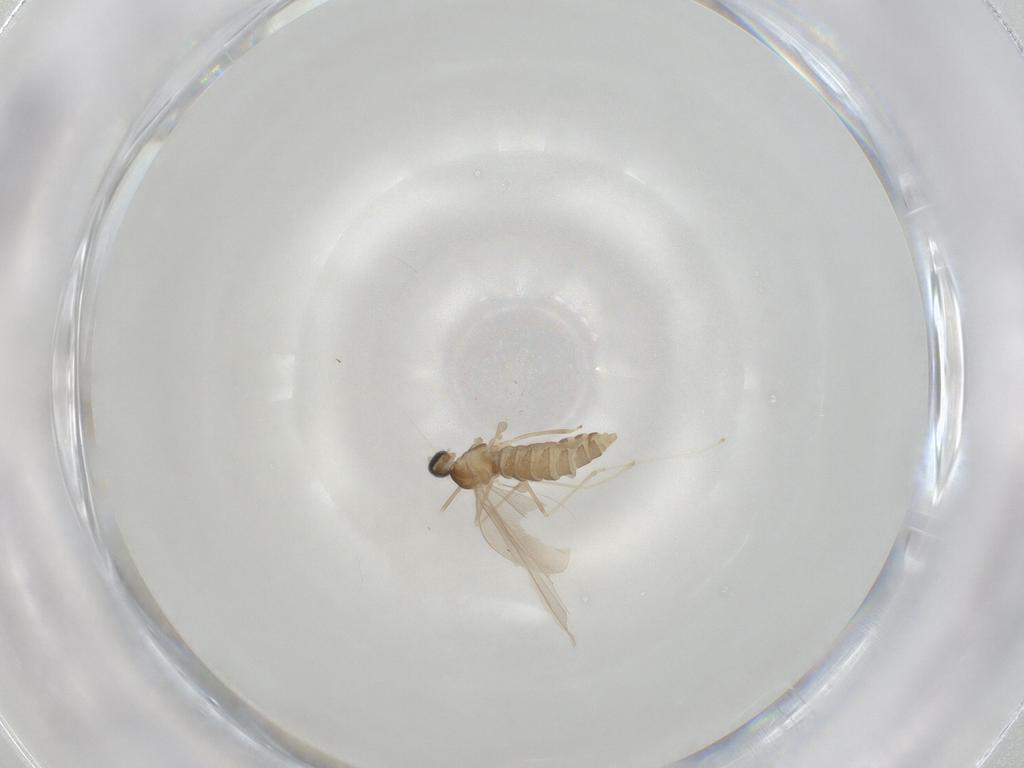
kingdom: Animalia
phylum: Arthropoda
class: Insecta
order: Diptera
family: Cecidomyiidae
